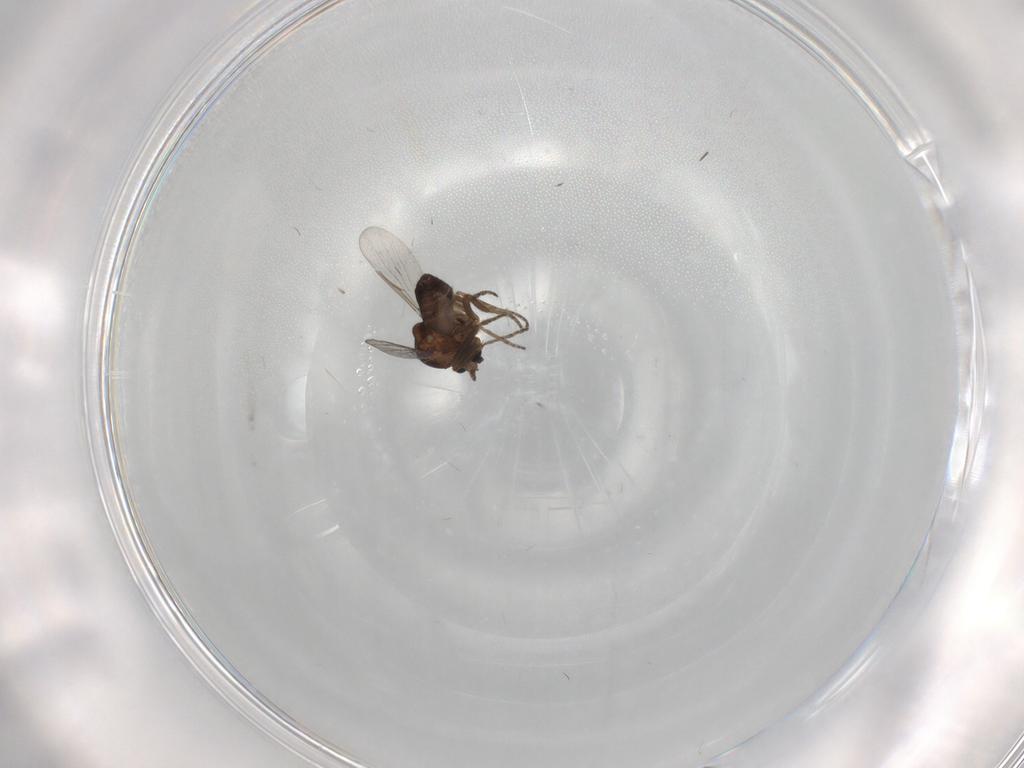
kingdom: Animalia
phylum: Arthropoda
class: Insecta
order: Diptera
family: Ceratopogonidae
